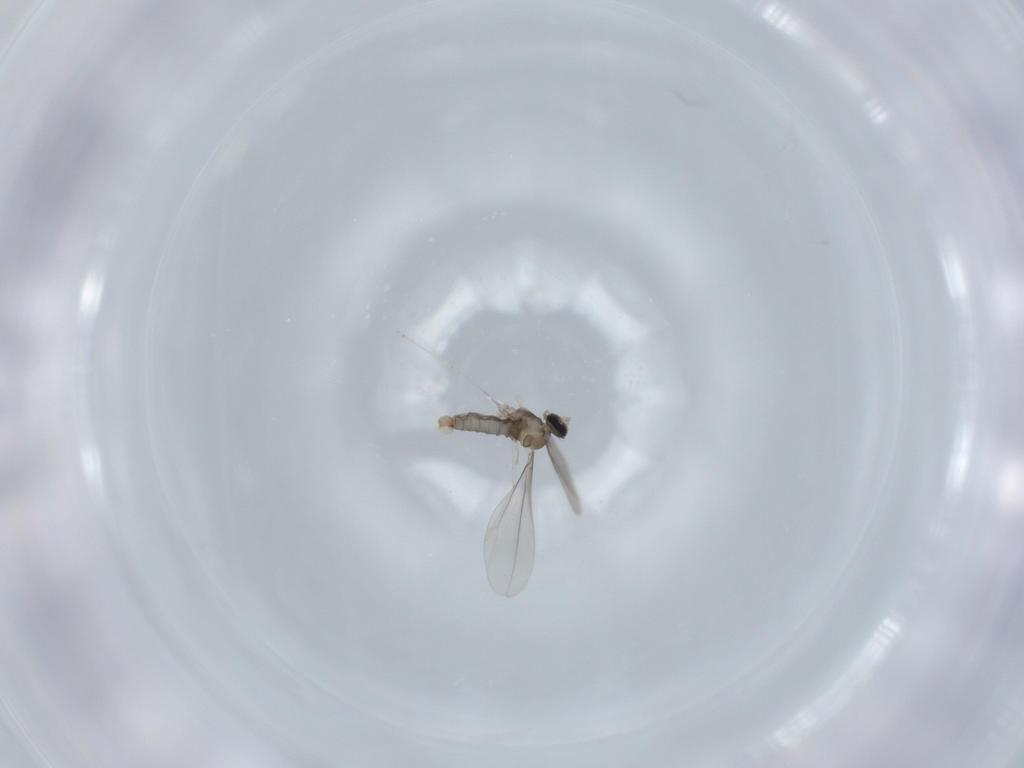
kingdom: Animalia
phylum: Arthropoda
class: Insecta
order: Diptera
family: Cecidomyiidae
